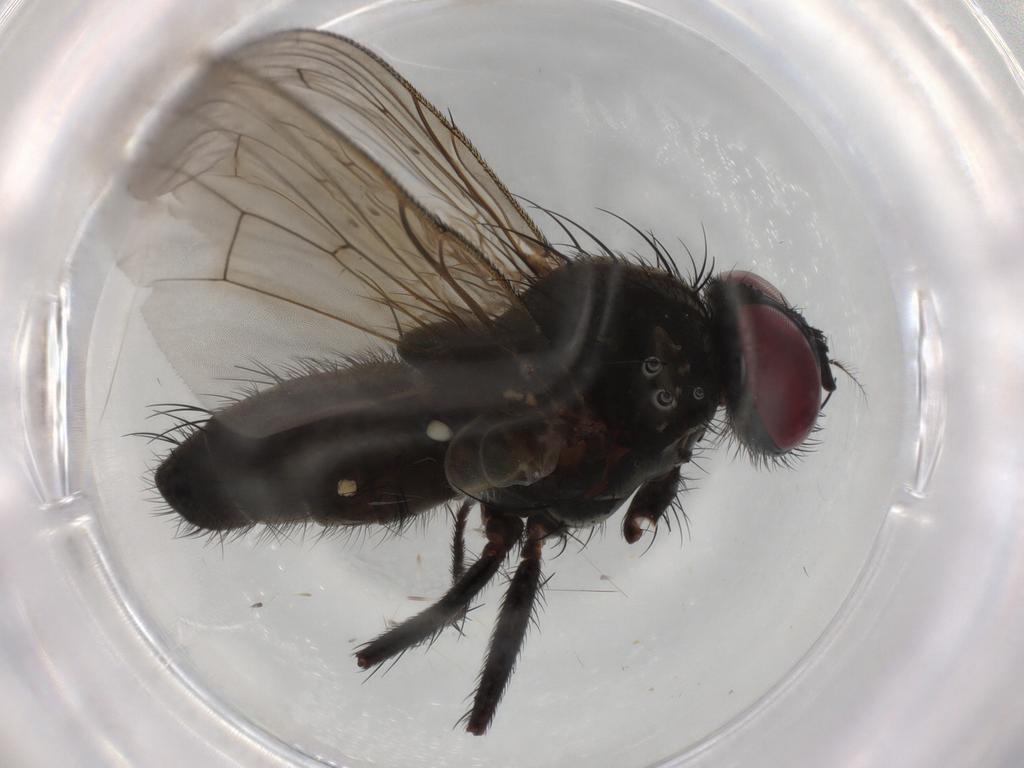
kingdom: Animalia
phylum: Arthropoda
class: Insecta
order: Diptera
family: Muscidae
